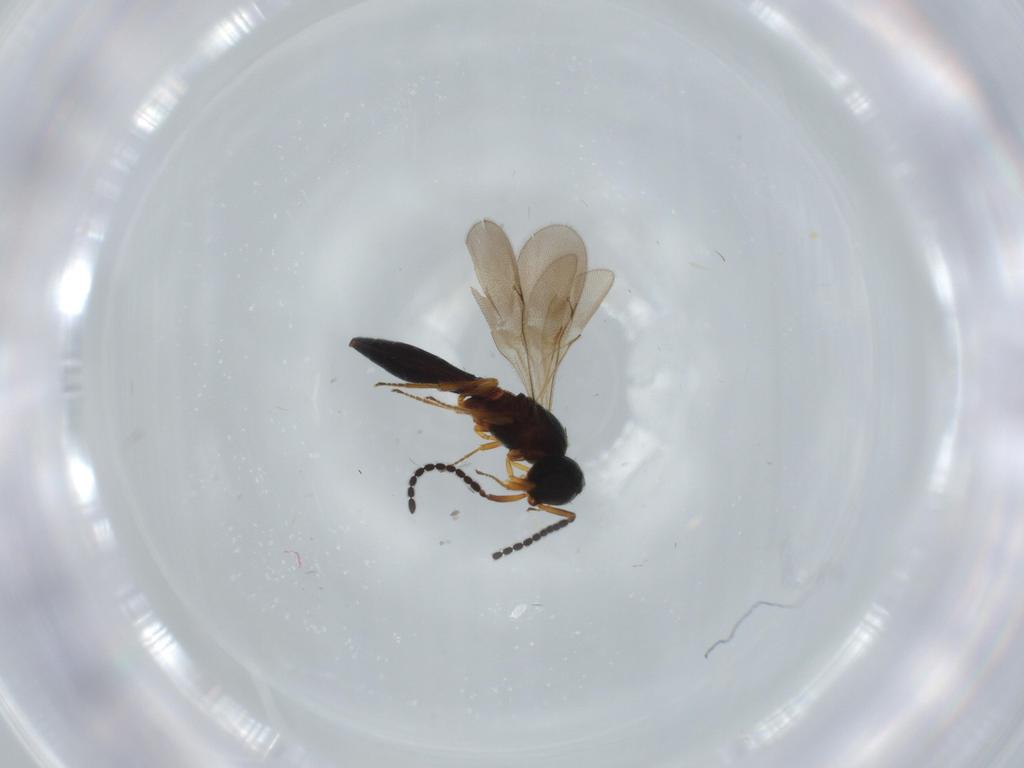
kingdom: Animalia
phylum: Arthropoda
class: Insecta
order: Hymenoptera
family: Scelionidae
